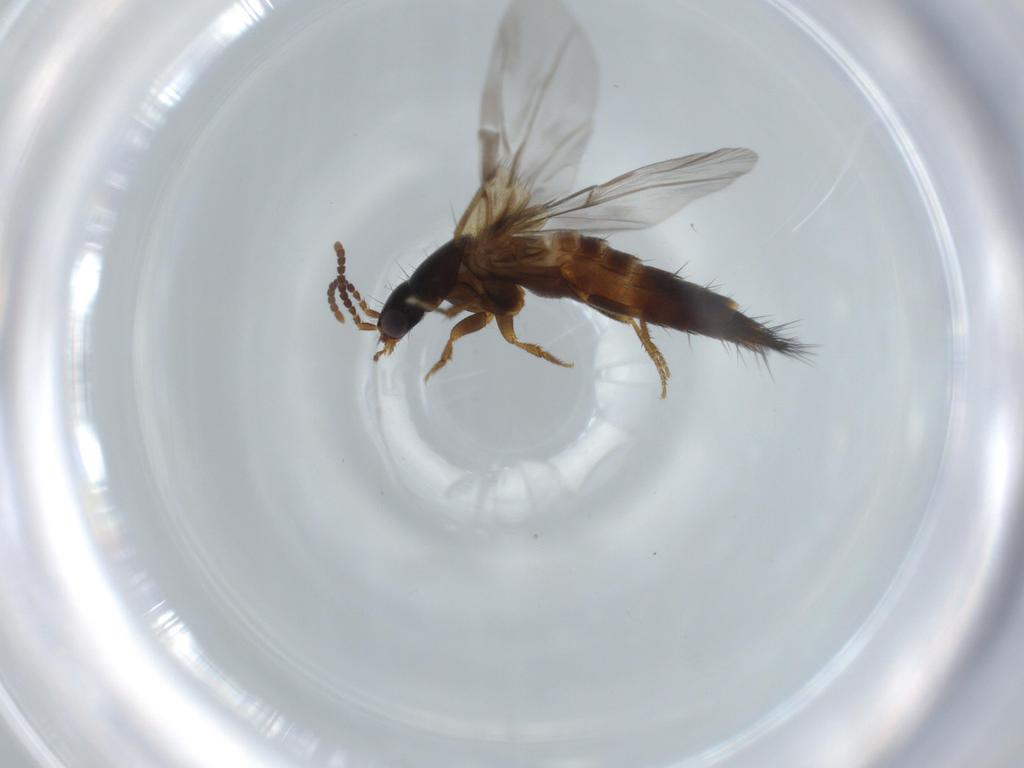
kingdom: Animalia
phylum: Arthropoda
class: Insecta
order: Coleoptera
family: Staphylinidae
